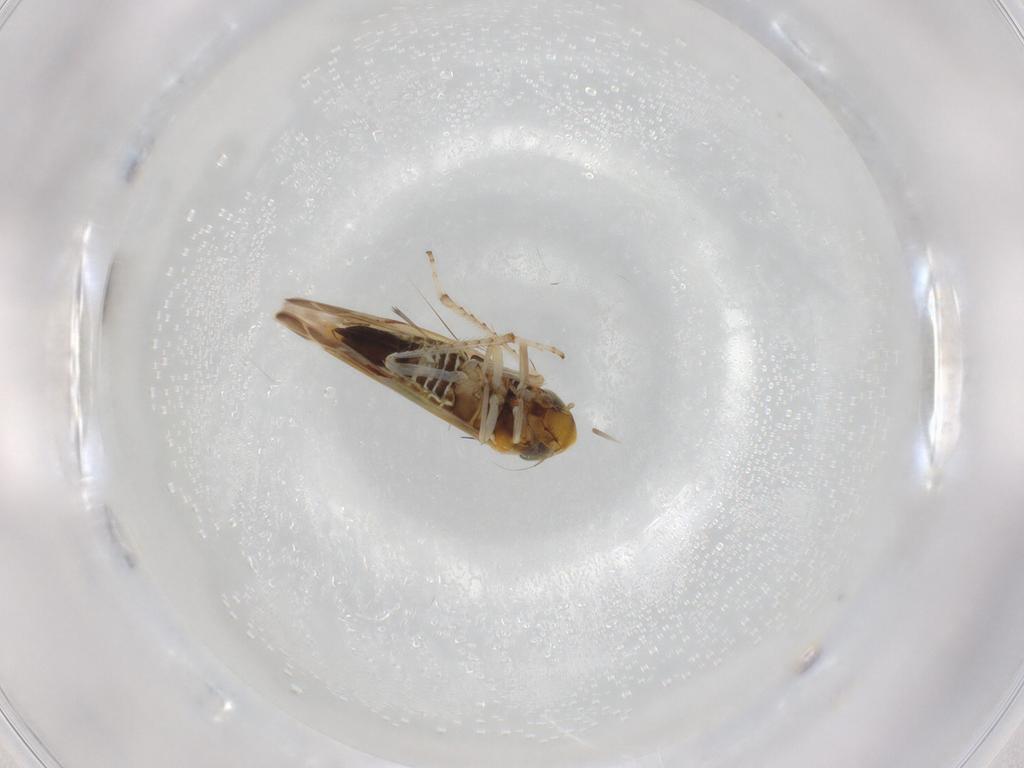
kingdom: Animalia
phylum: Arthropoda
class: Insecta
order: Hemiptera
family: Cicadellidae
